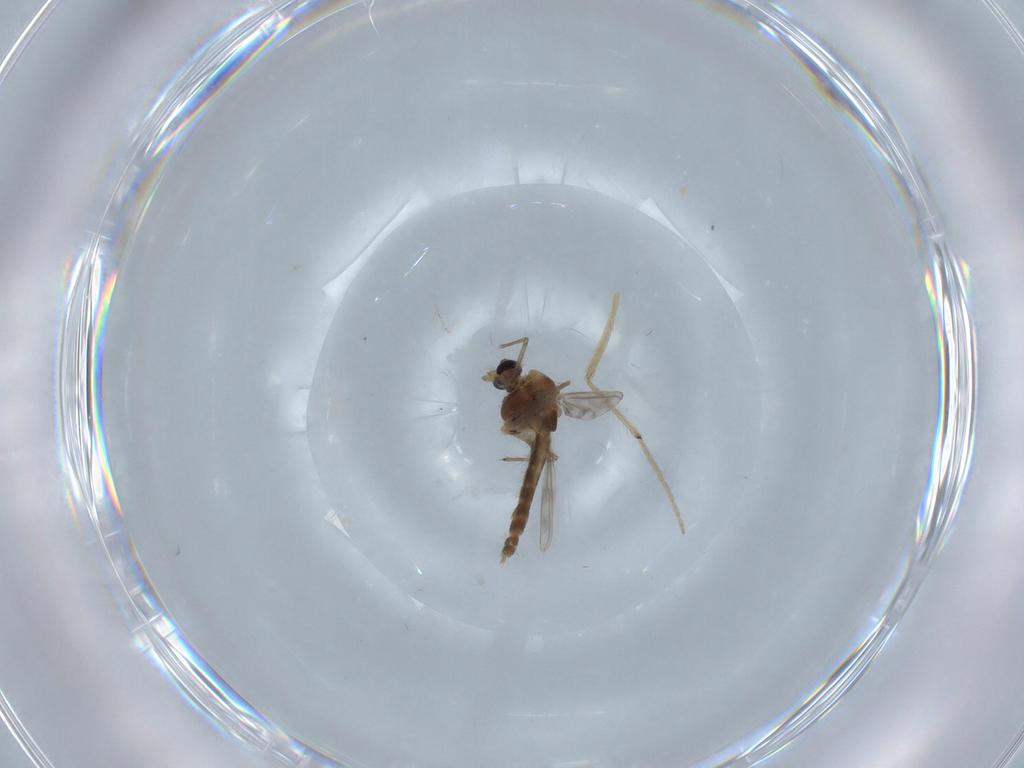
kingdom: Animalia
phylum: Arthropoda
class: Insecta
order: Diptera
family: Chironomidae
